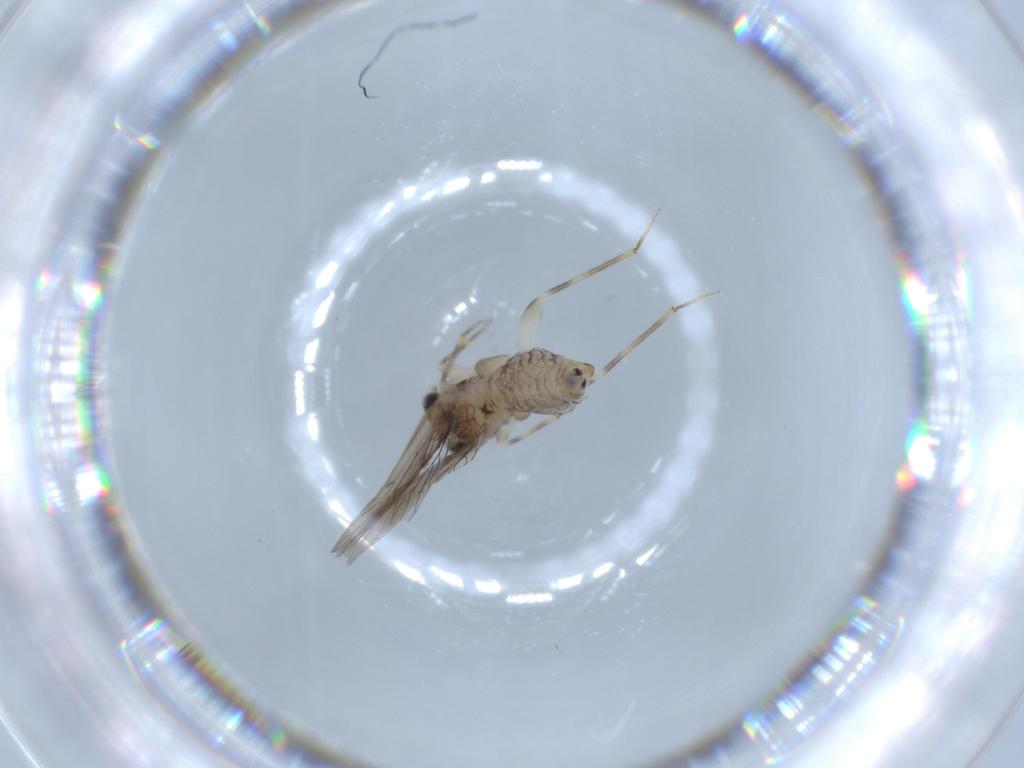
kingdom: Animalia
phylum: Arthropoda
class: Insecta
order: Psocodea
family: Lepidopsocidae
